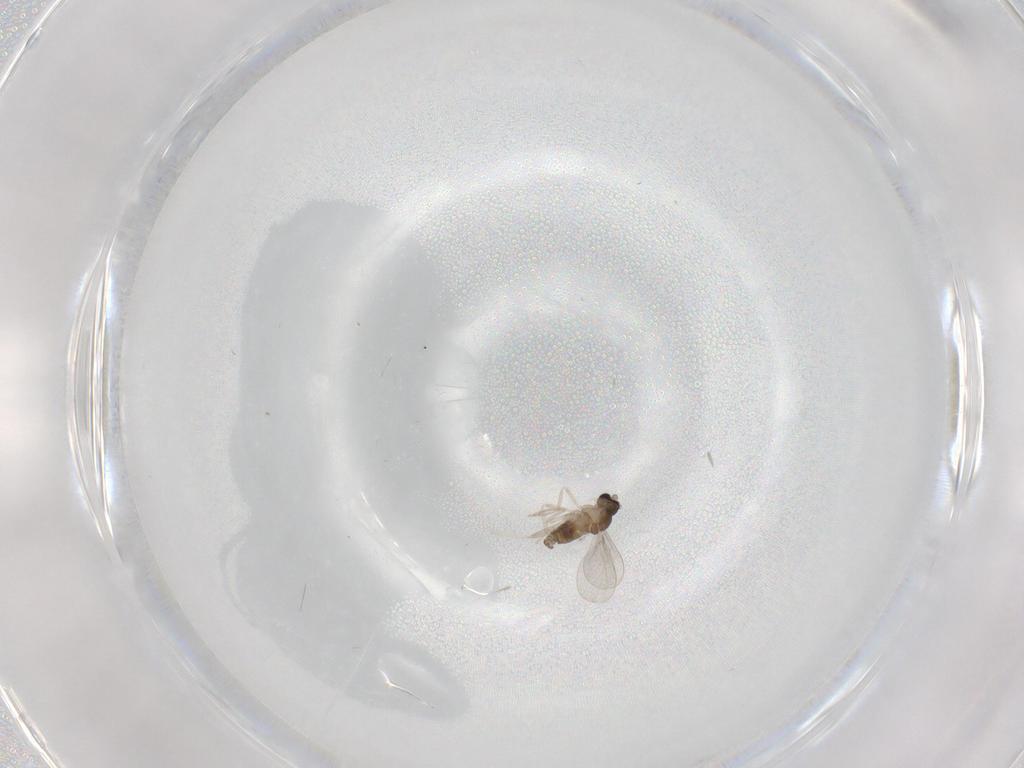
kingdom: Animalia
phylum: Arthropoda
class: Insecta
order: Diptera
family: Cecidomyiidae
